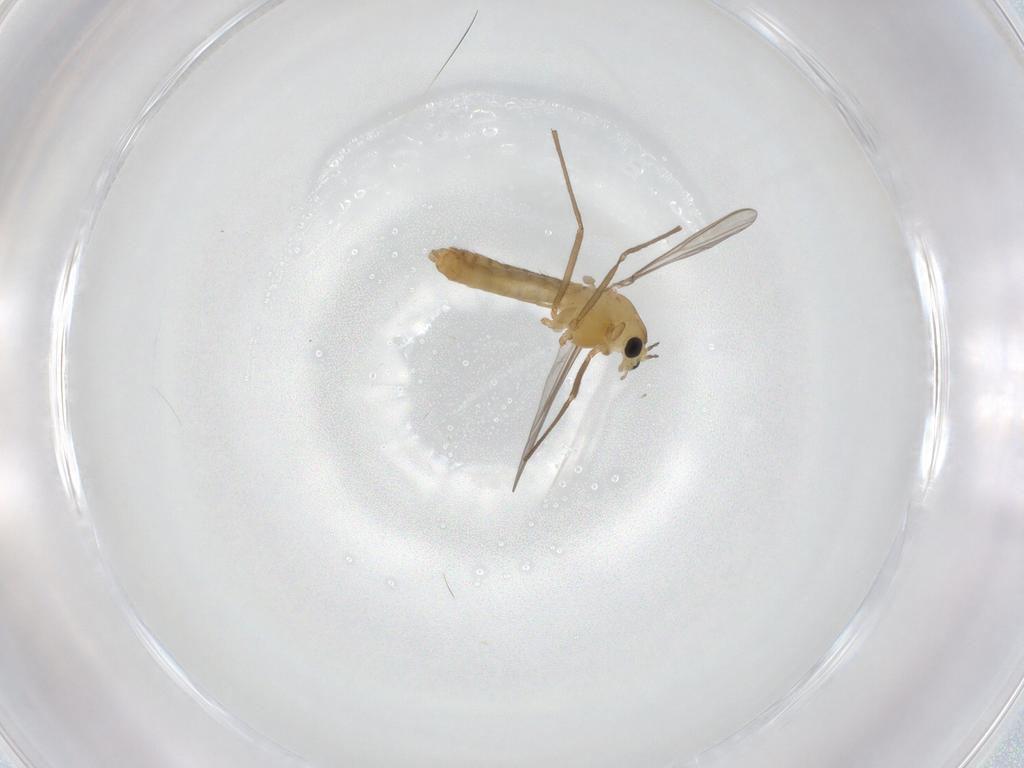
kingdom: Animalia
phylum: Arthropoda
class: Insecta
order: Diptera
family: Chironomidae
